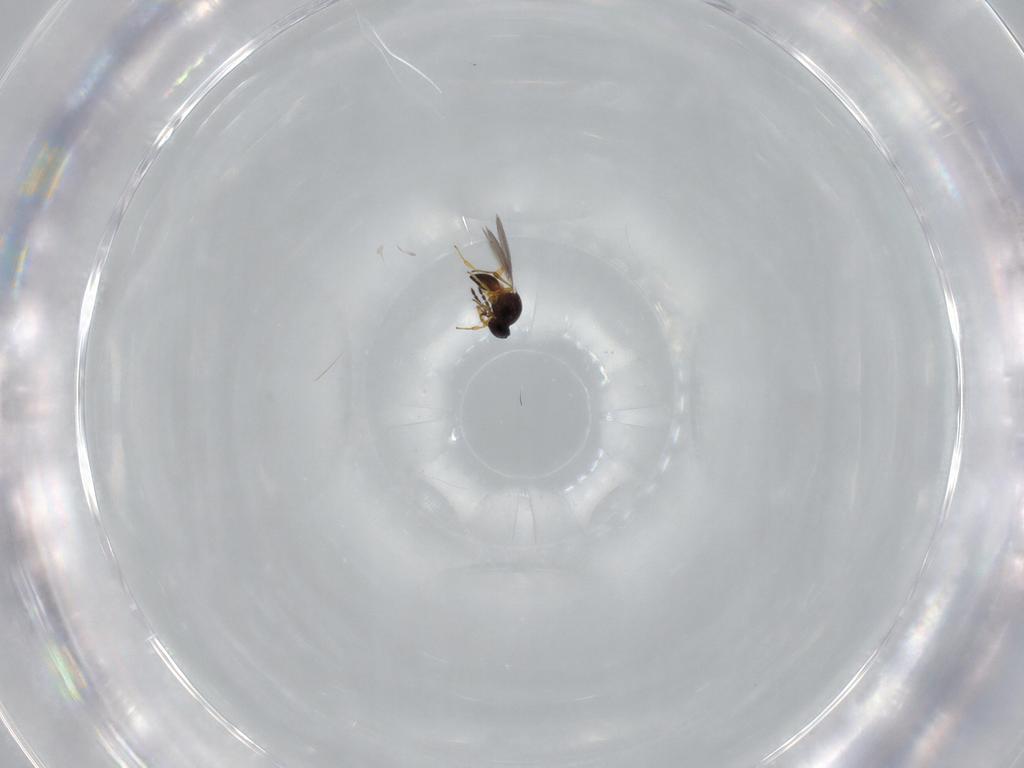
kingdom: Animalia
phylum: Arthropoda
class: Insecta
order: Hymenoptera
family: Platygastridae
